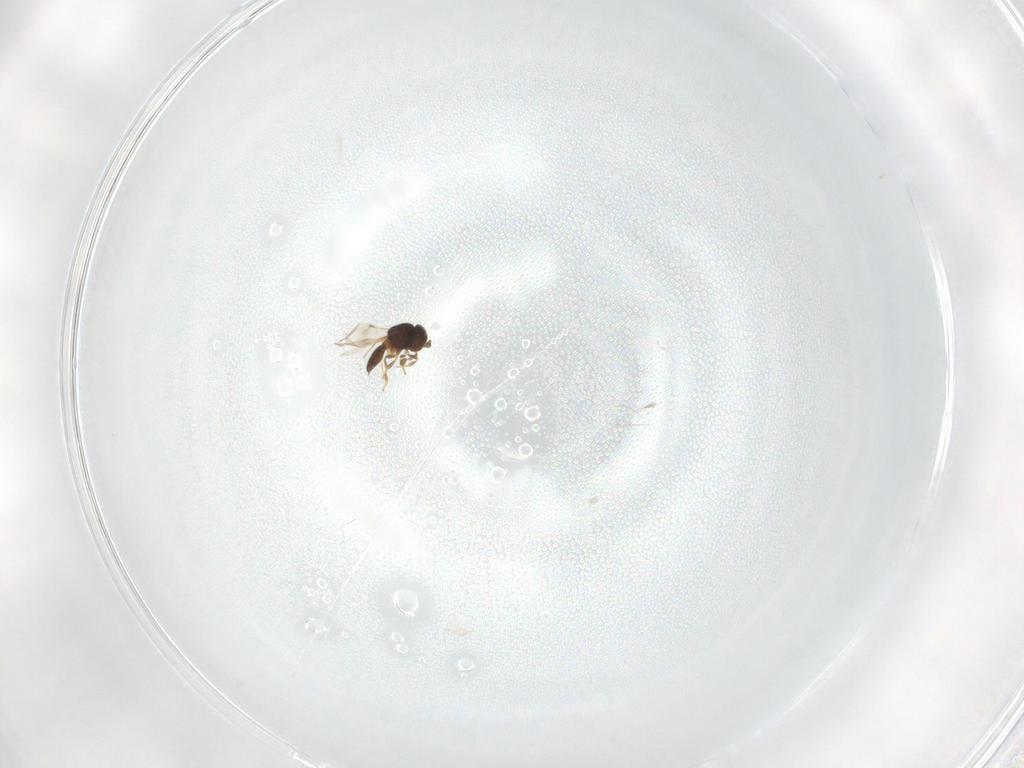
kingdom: Animalia
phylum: Arthropoda
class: Insecta
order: Hymenoptera
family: Scelionidae
